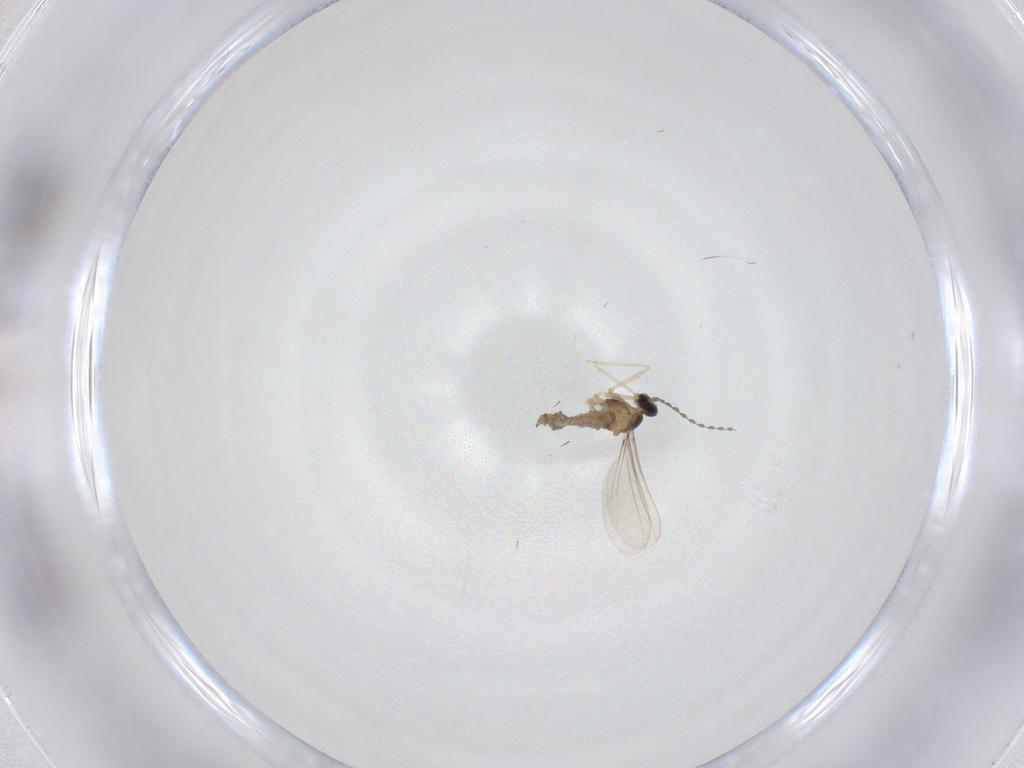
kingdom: Animalia
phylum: Arthropoda
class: Insecta
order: Diptera
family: Cecidomyiidae
